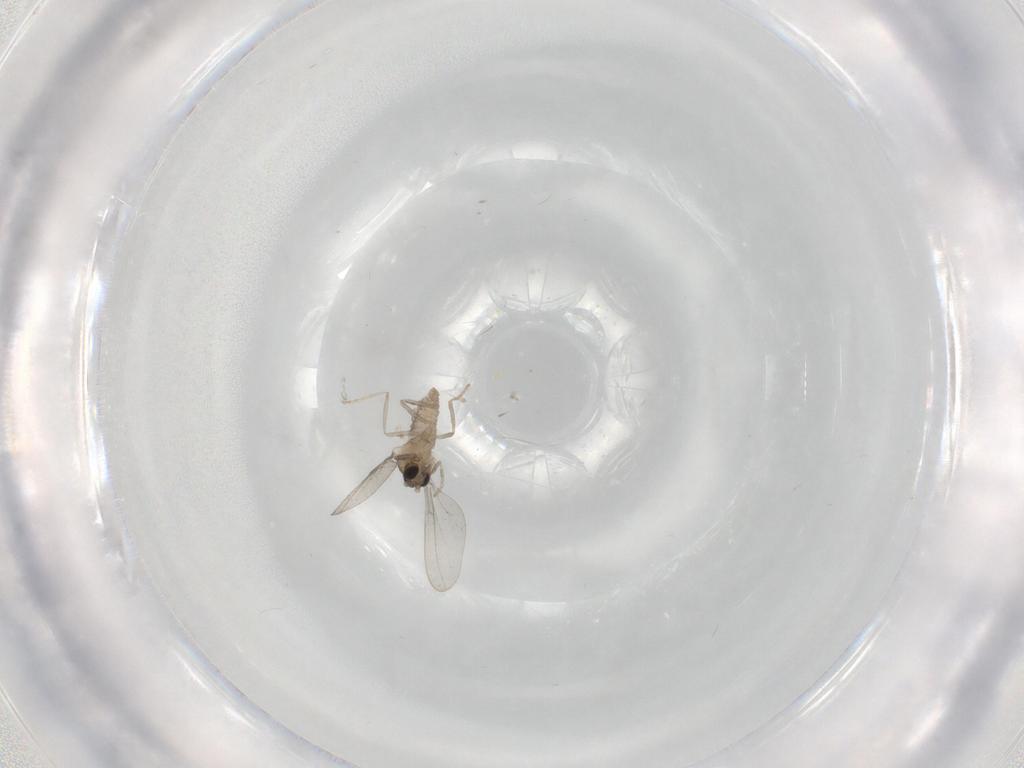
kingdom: Animalia
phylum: Arthropoda
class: Insecta
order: Diptera
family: Cecidomyiidae
